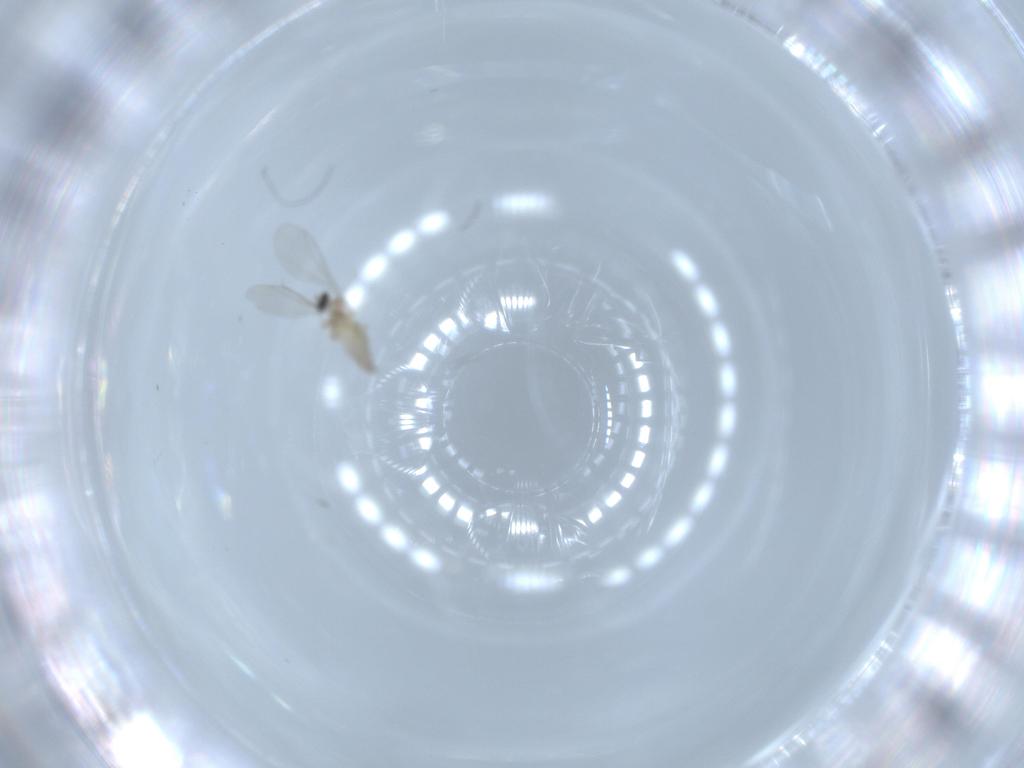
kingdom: Animalia
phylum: Arthropoda
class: Insecta
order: Diptera
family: Cecidomyiidae
